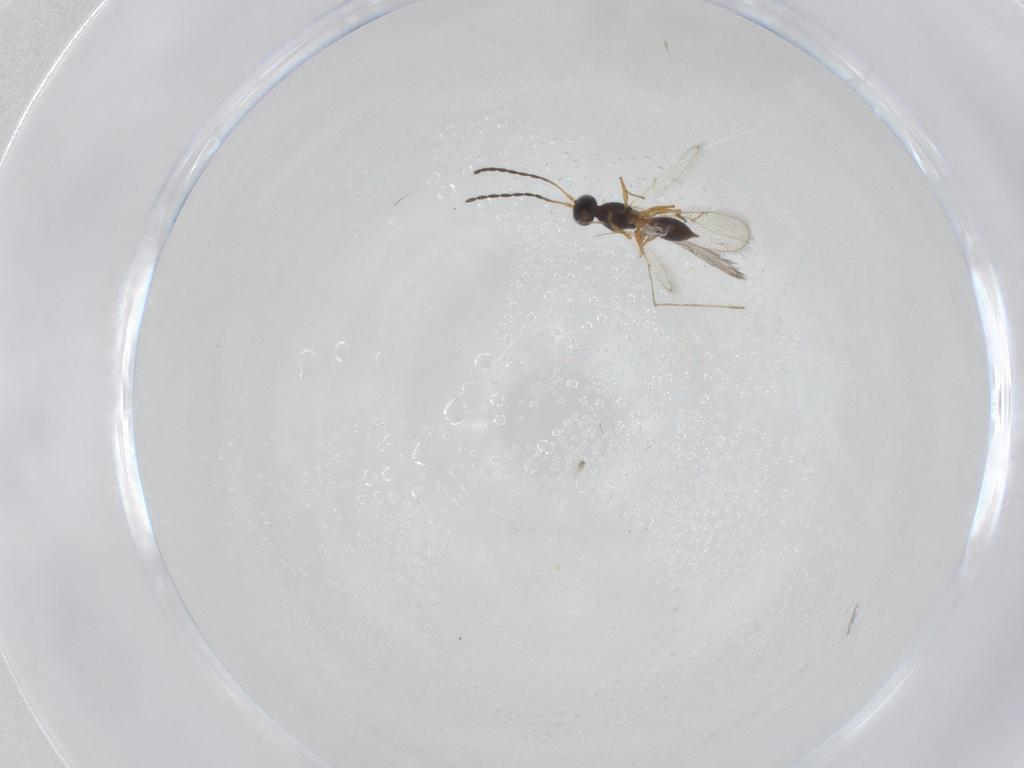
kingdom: Animalia
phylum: Arthropoda
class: Insecta
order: Diptera
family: Cecidomyiidae
